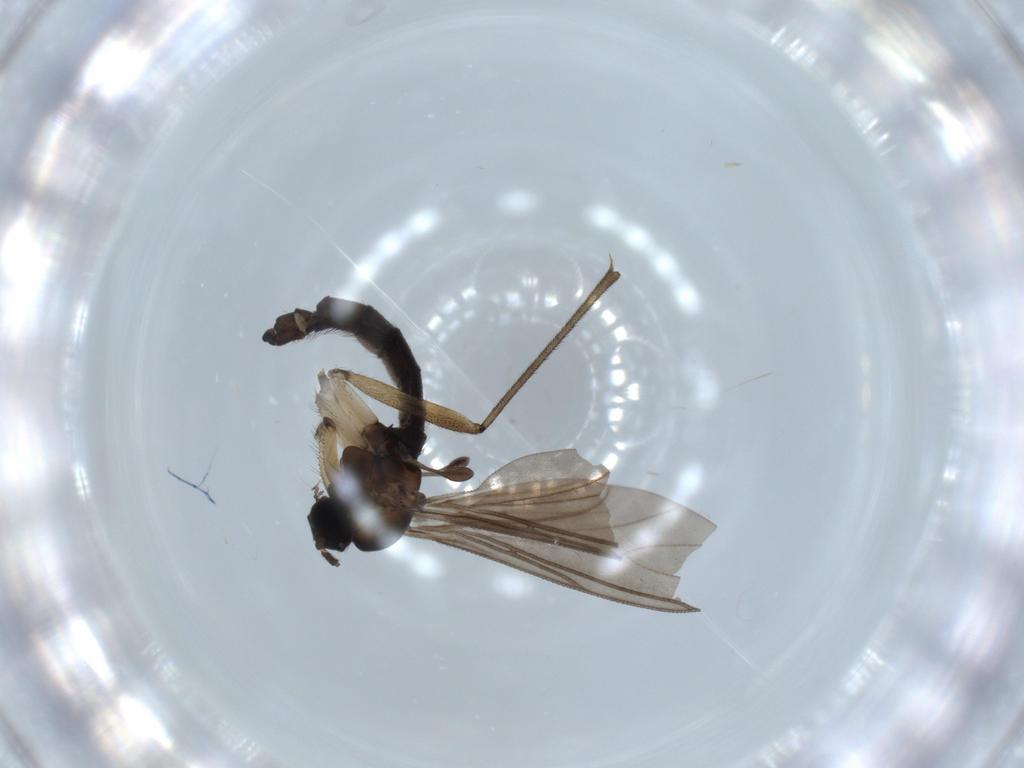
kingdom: Animalia
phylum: Arthropoda
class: Insecta
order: Diptera
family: Sciaridae
